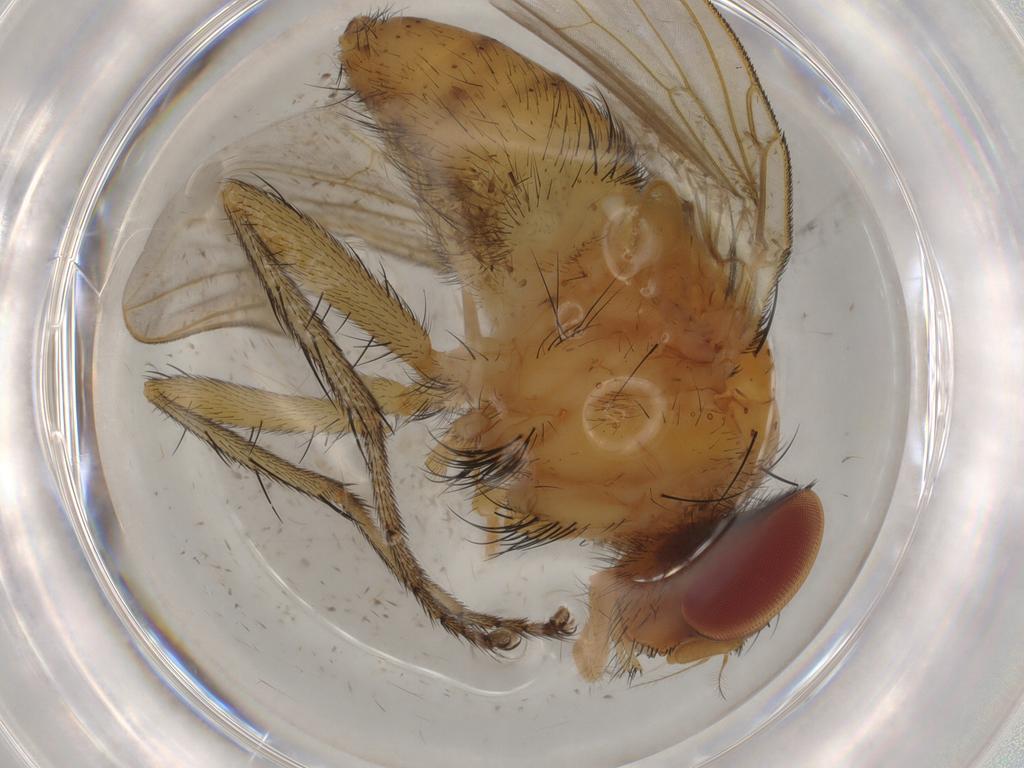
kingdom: Animalia
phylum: Arthropoda
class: Insecta
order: Diptera
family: Tachinidae
